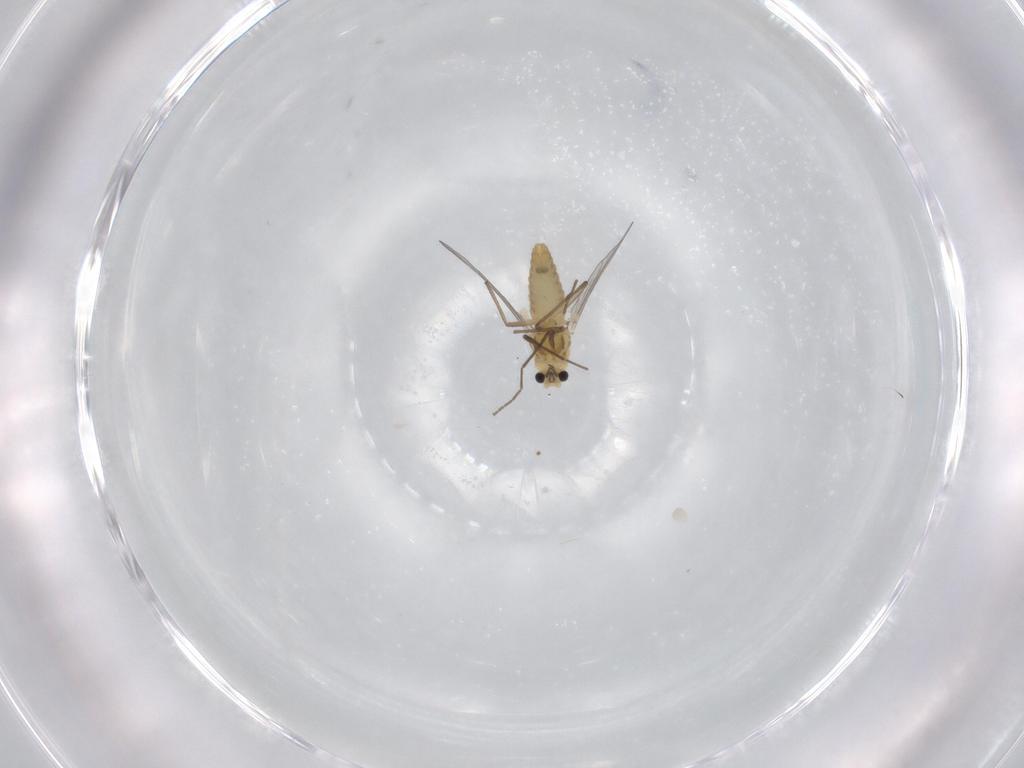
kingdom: Animalia
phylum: Arthropoda
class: Insecta
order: Diptera
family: Chironomidae
